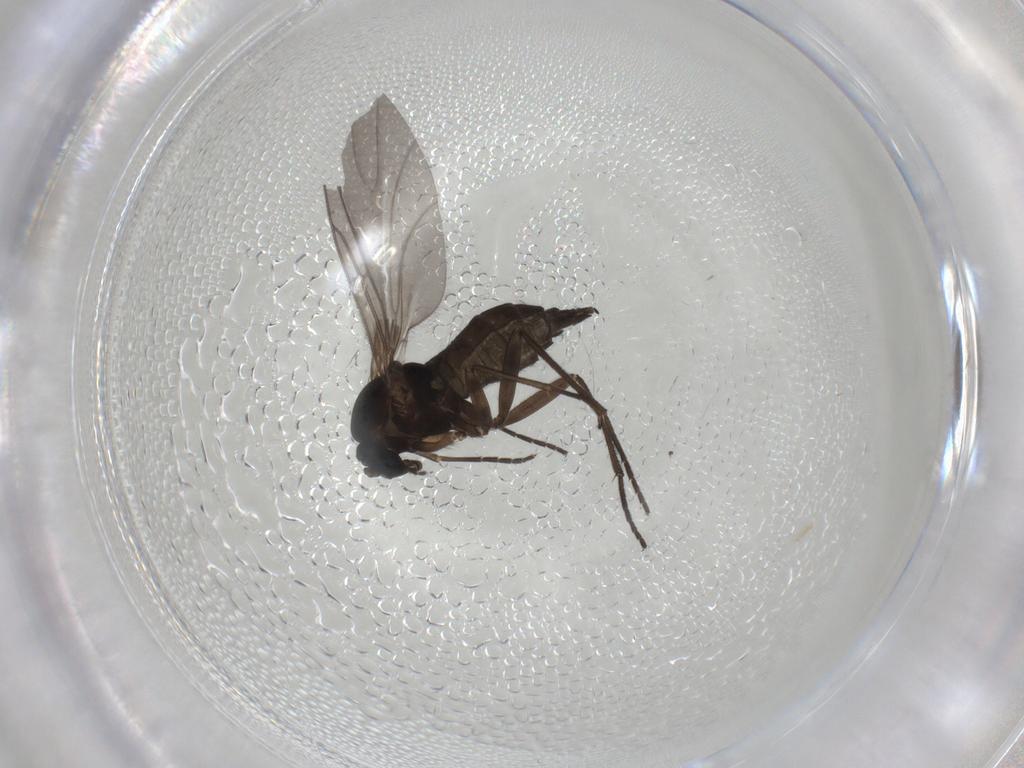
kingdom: Animalia
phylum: Arthropoda
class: Insecta
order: Diptera
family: Sciaridae
